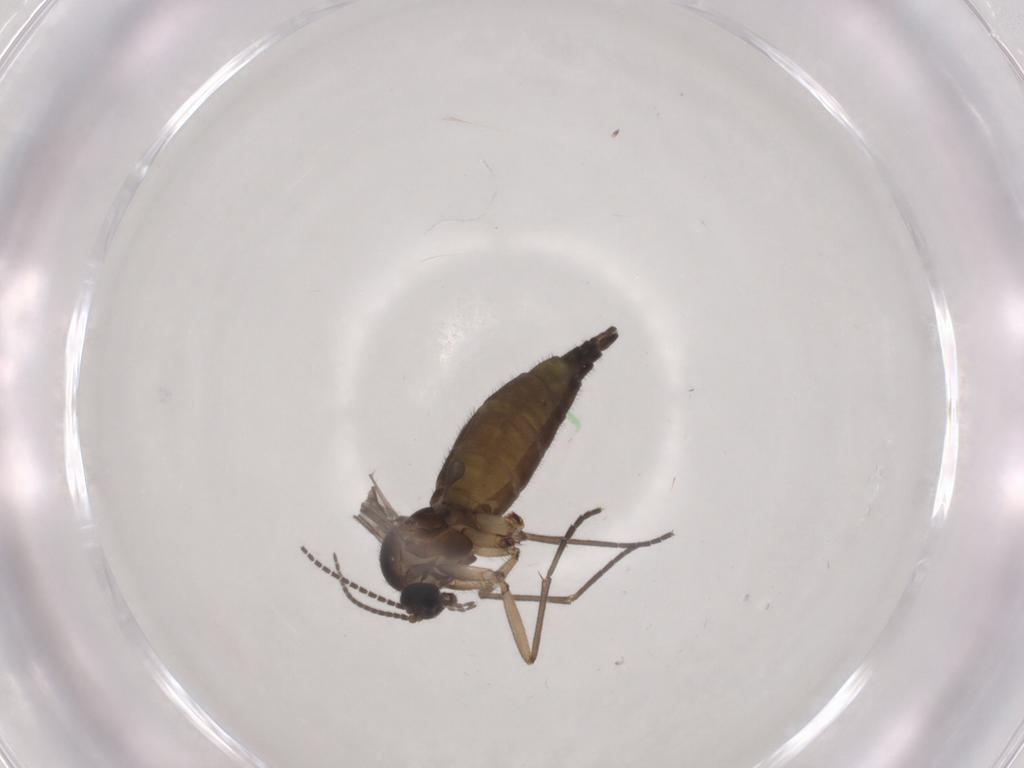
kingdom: Animalia
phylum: Arthropoda
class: Insecta
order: Diptera
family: Sciaridae
